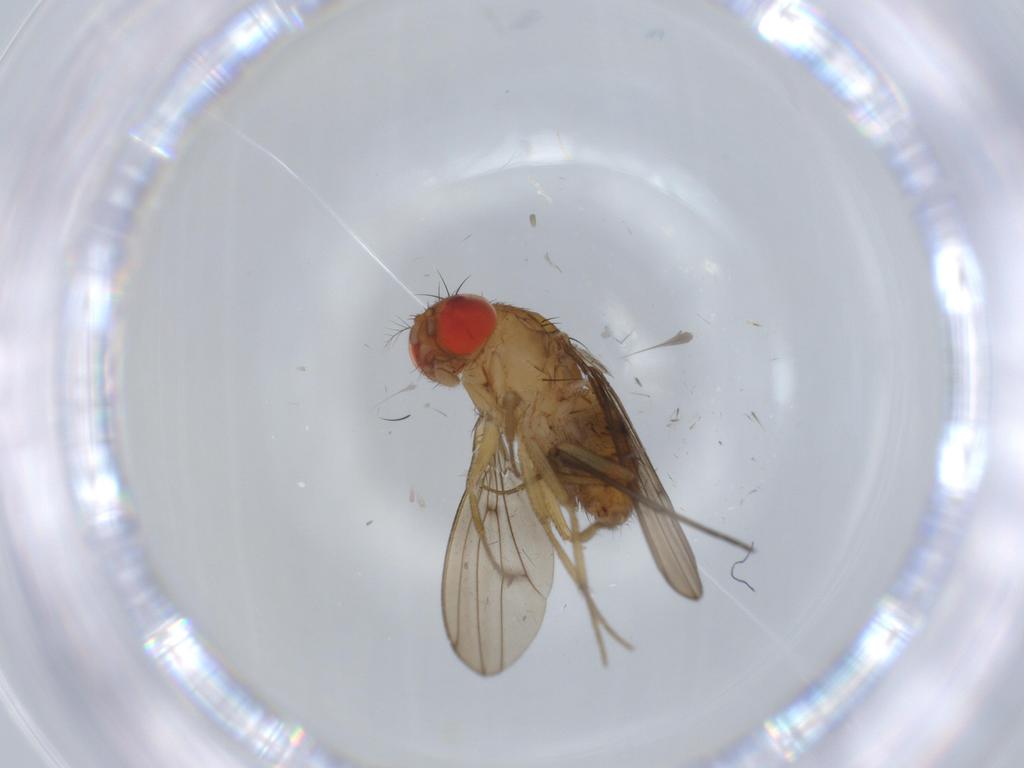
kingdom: Animalia
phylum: Arthropoda
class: Insecta
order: Diptera
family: Drosophilidae
